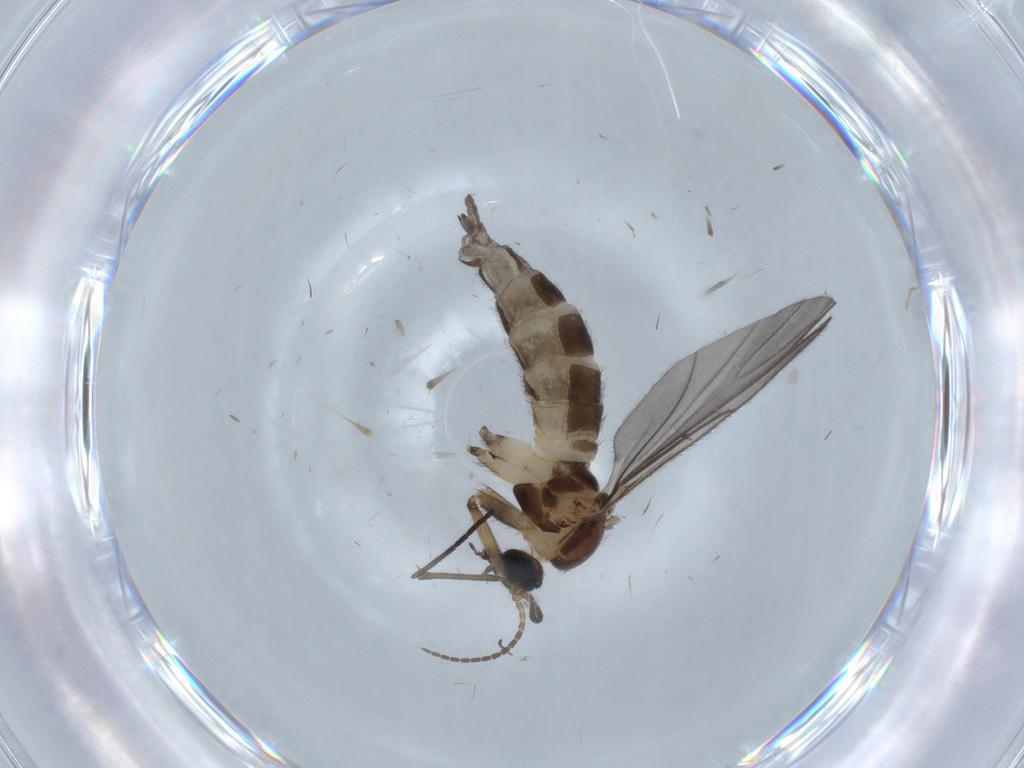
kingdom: Animalia
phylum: Arthropoda
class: Insecta
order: Diptera
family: Sciaridae
